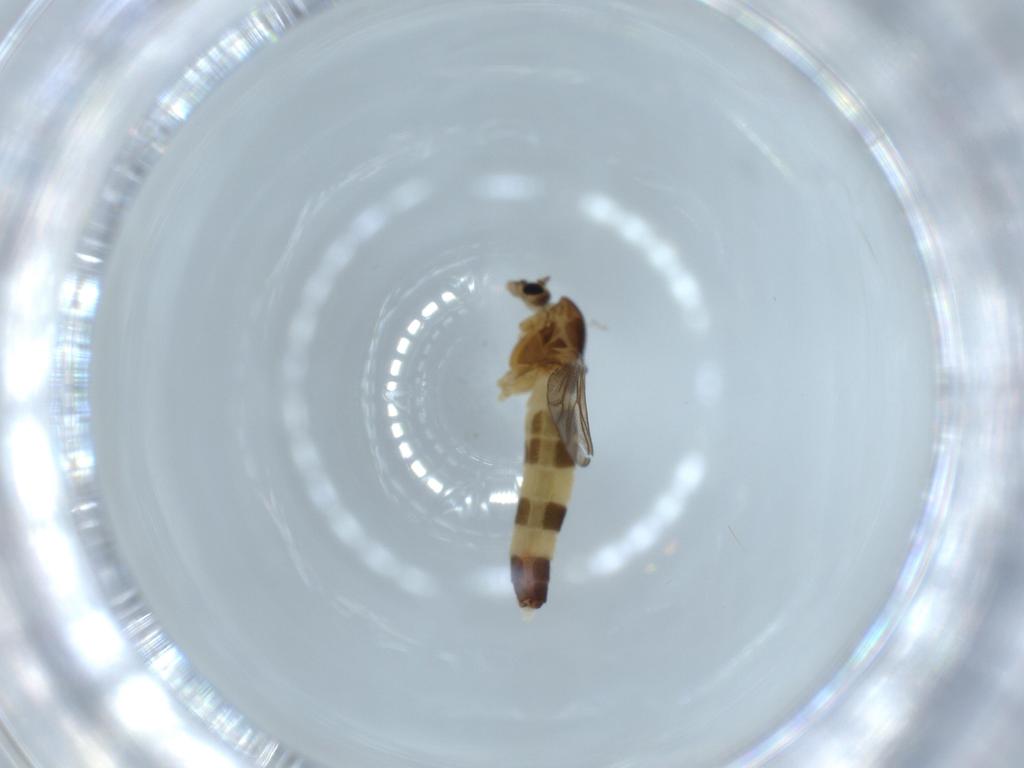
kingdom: Animalia
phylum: Arthropoda
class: Insecta
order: Diptera
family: Chironomidae
